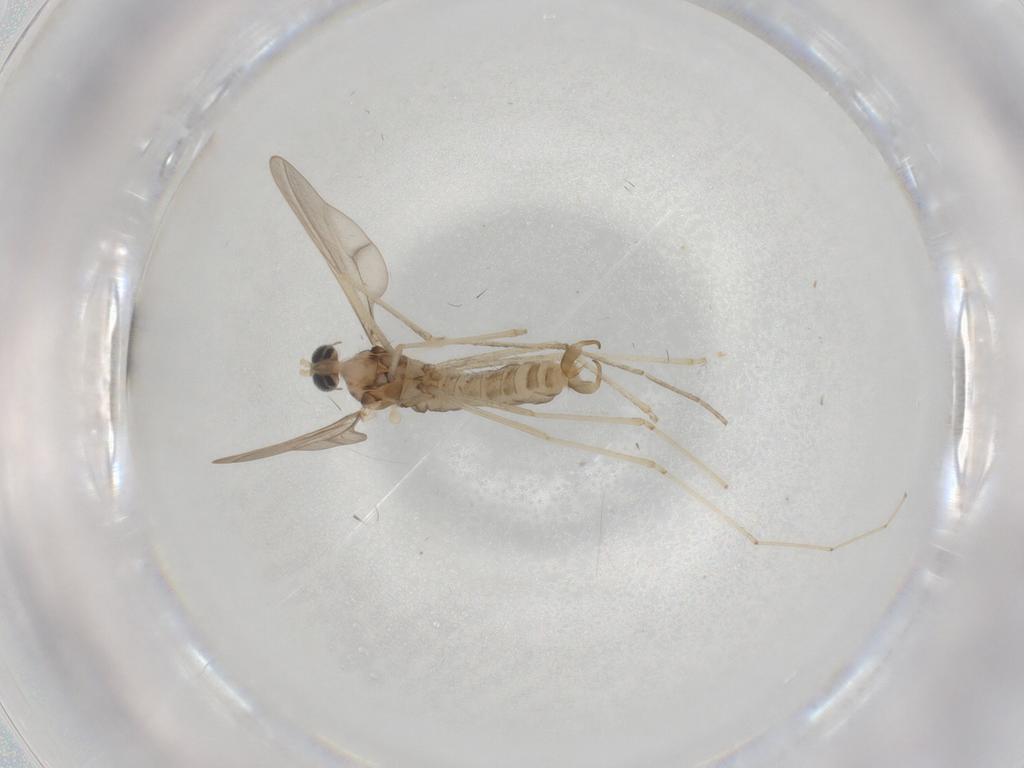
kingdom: Animalia
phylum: Arthropoda
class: Insecta
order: Diptera
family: Cecidomyiidae
